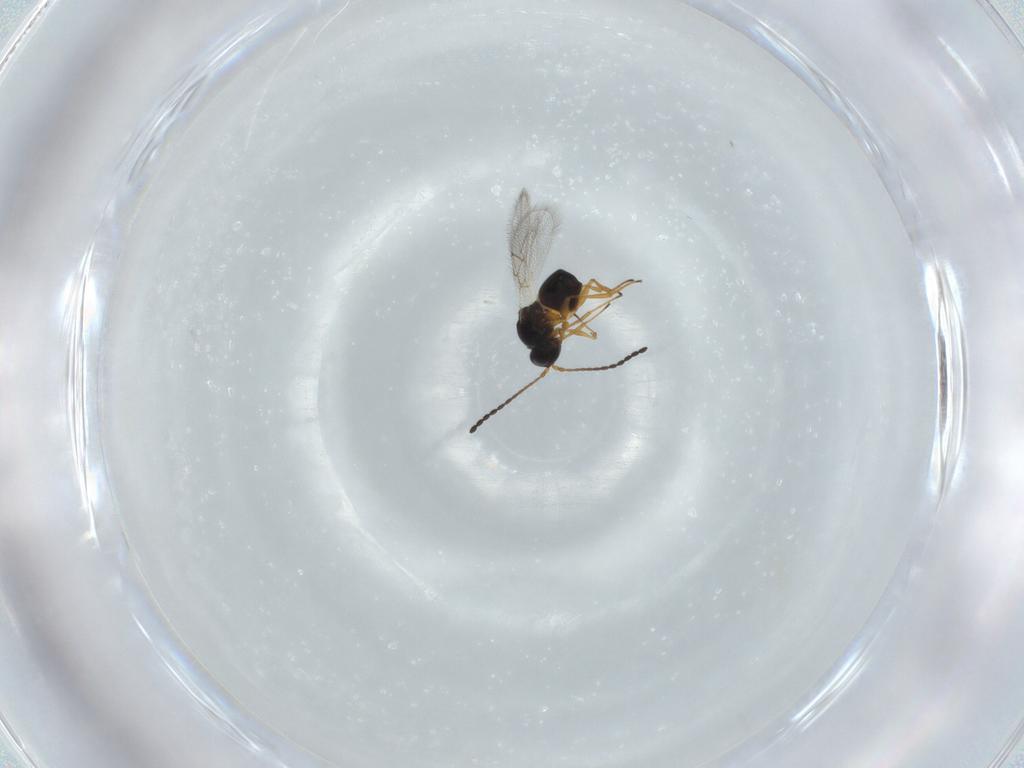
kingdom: Animalia
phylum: Arthropoda
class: Insecta
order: Hymenoptera
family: Figitidae
